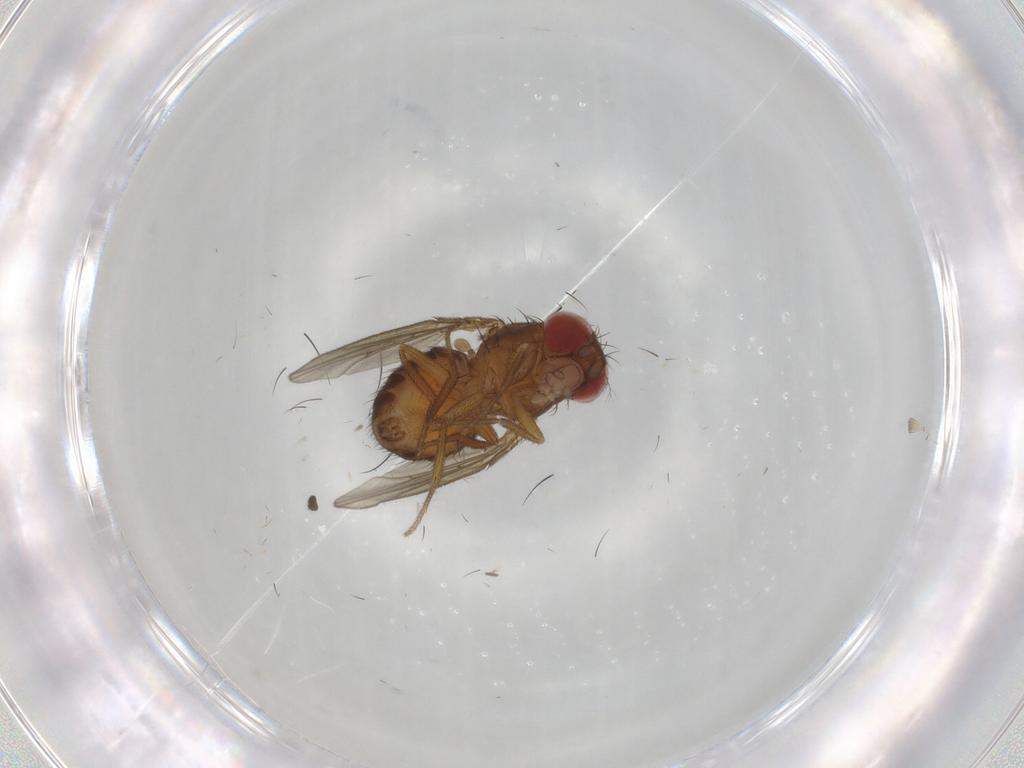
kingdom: Animalia
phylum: Arthropoda
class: Insecta
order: Diptera
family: Drosophilidae
